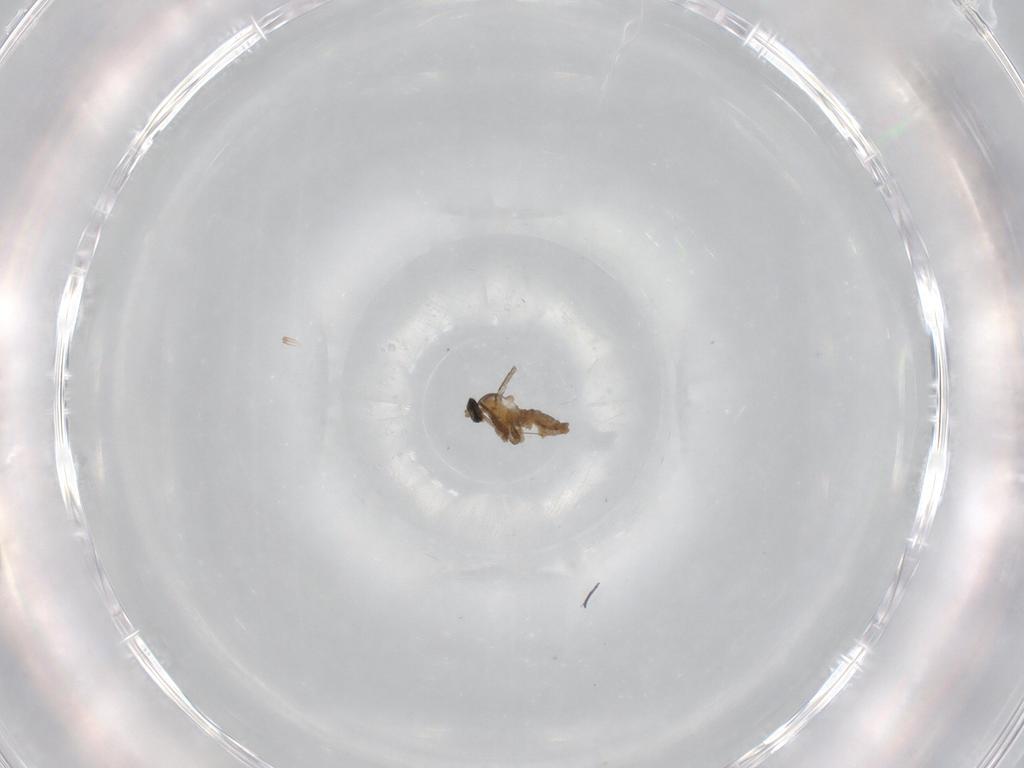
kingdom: Animalia
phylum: Arthropoda
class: Insecta
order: Diptera
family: Cecidomyiidae
